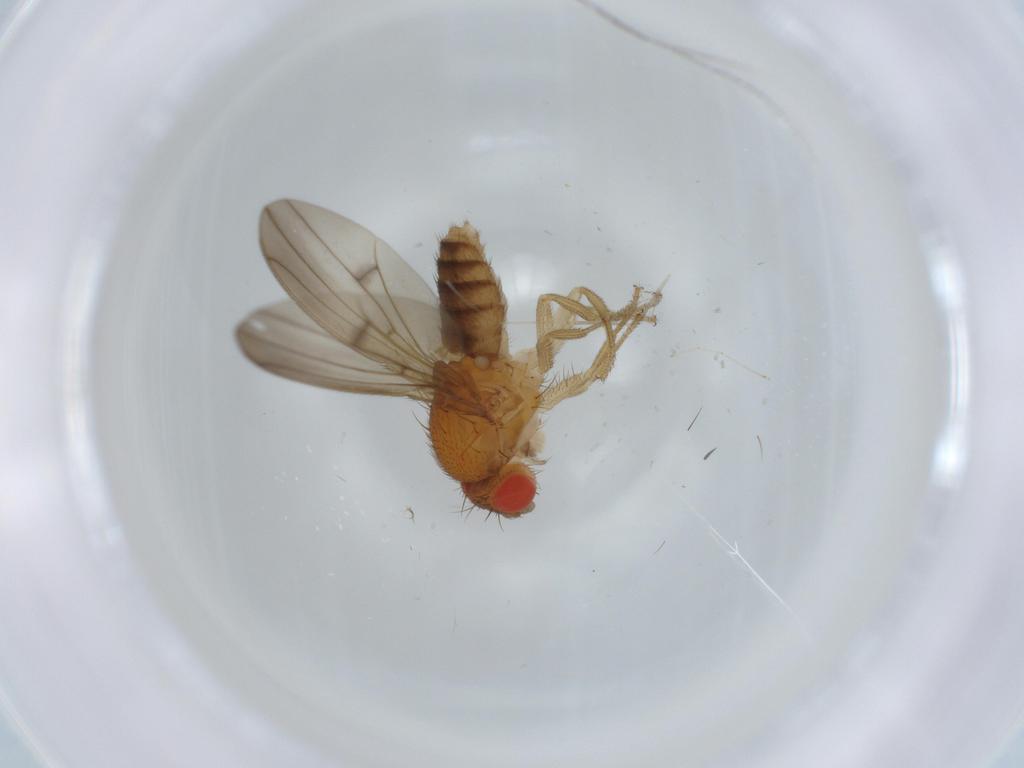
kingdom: Animalia
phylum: Arthropoda
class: Insecta
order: Diptera
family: Drosophilidae
